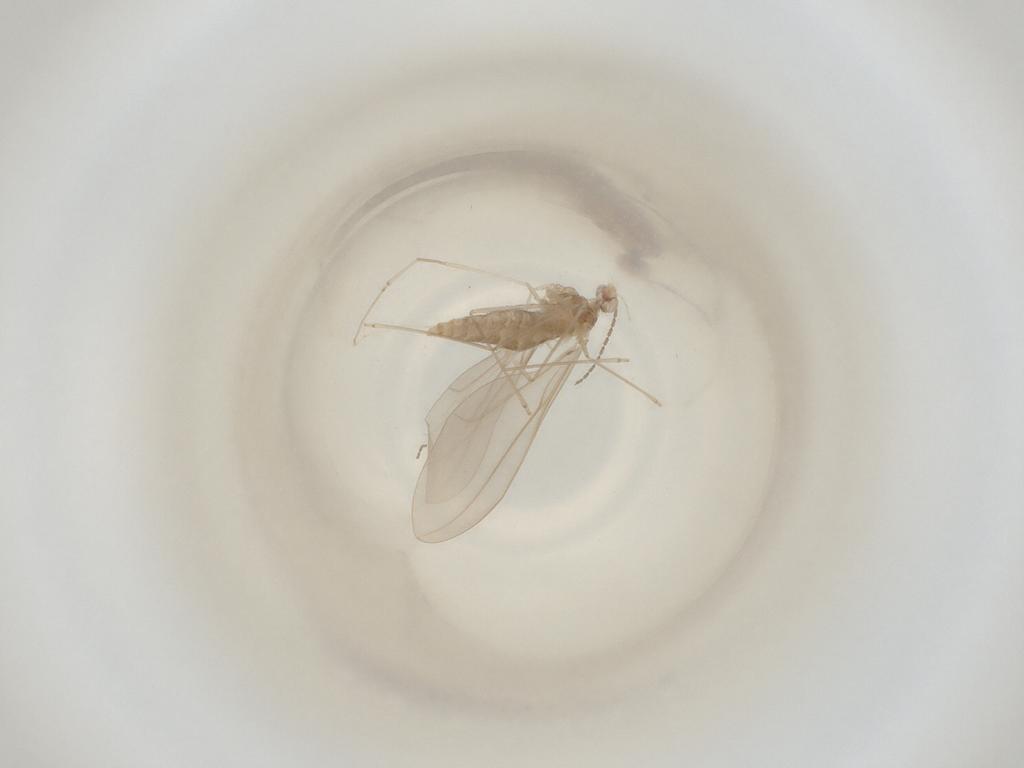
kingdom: Animalia
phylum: Arthropoda
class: Insecta
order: Diptera
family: Cecidomyiidae
